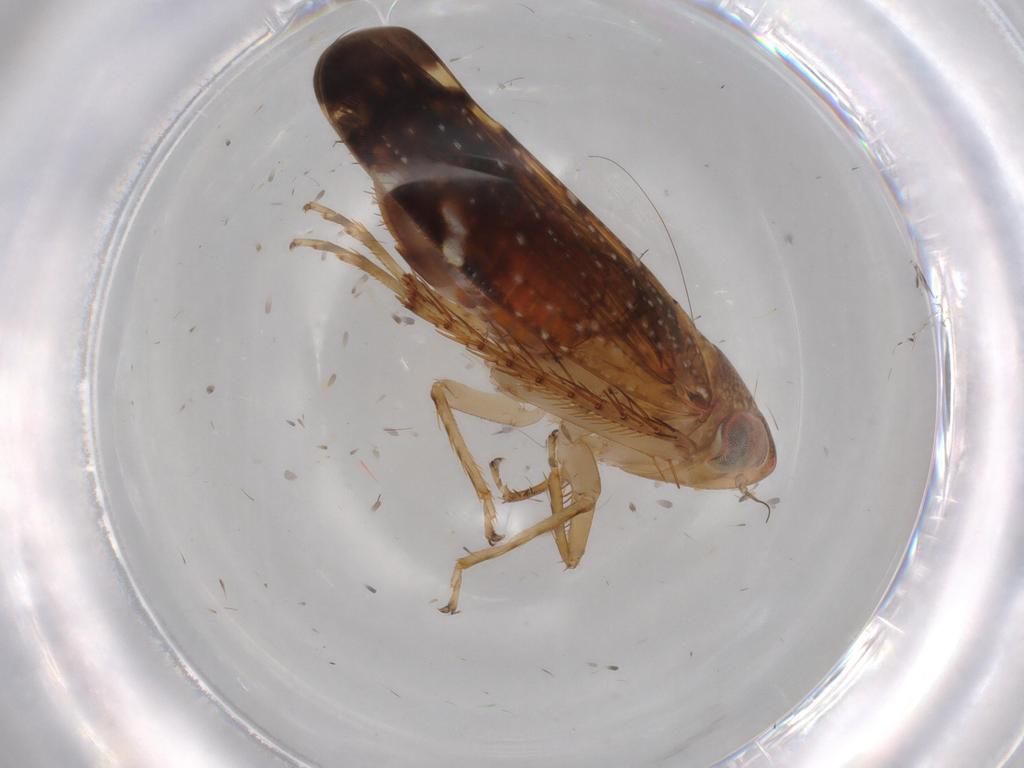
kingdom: Animalia
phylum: Arthropoda
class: Insecta
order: Hemiptera
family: Cicadellidae
